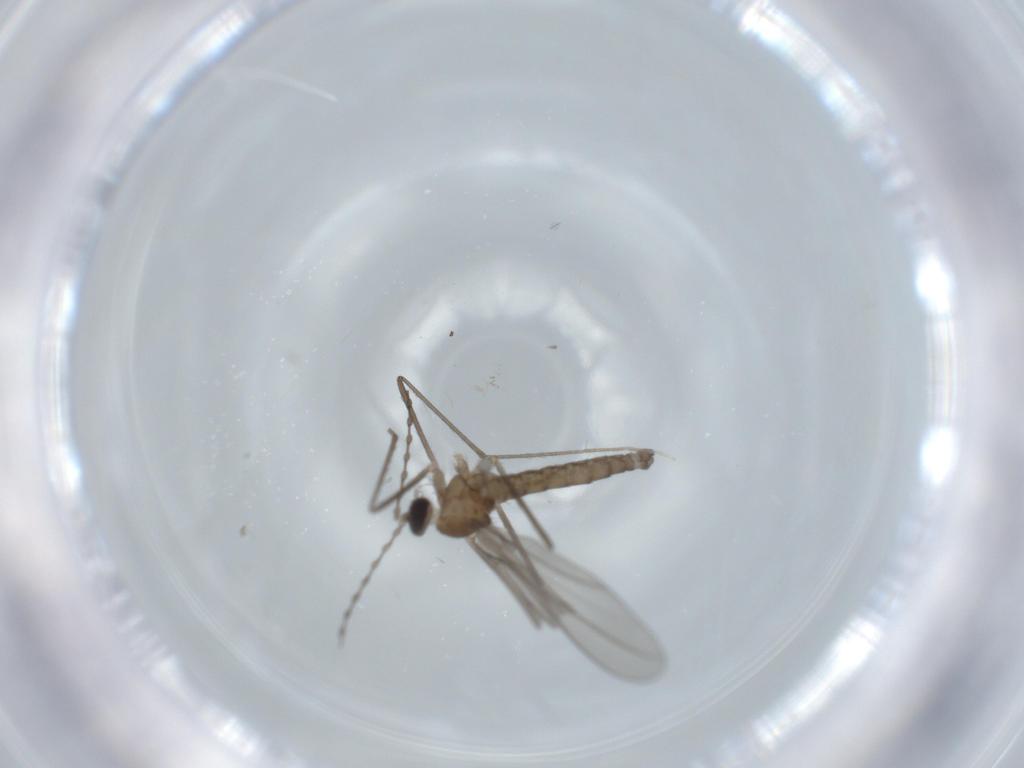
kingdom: Animalia
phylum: Arthropoda
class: Insecta
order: Diptera
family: Cecidomyiidae
